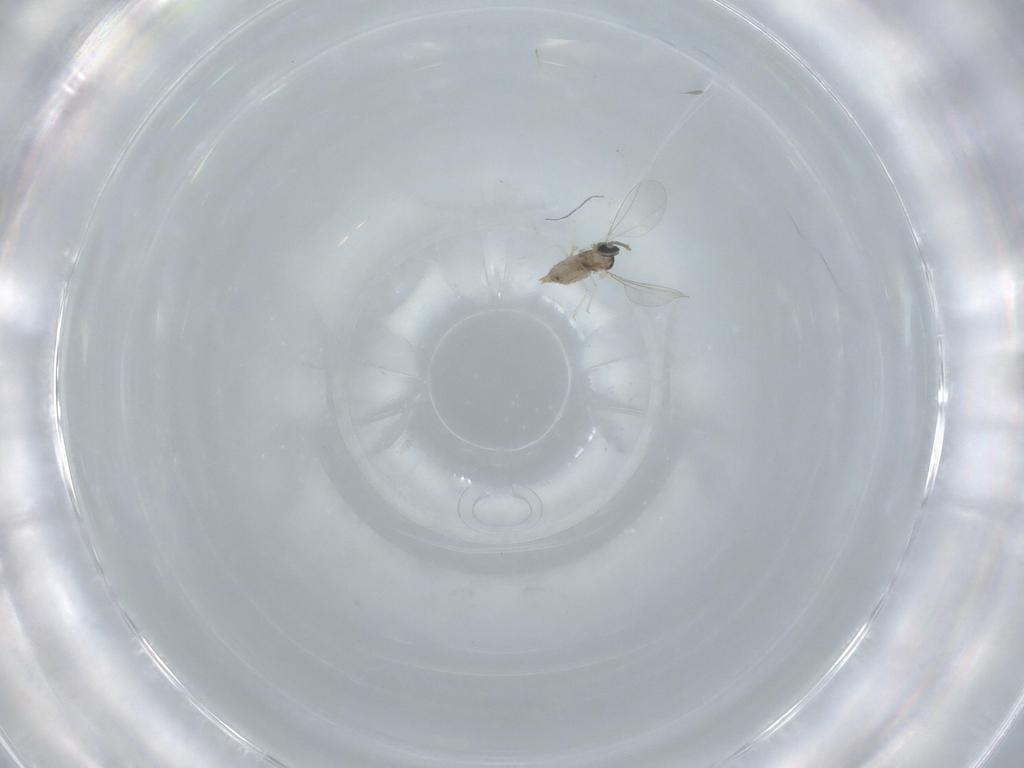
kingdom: Animalia
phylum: Arthropoda
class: Insecta
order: Diptera
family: Cecidomyiidae
